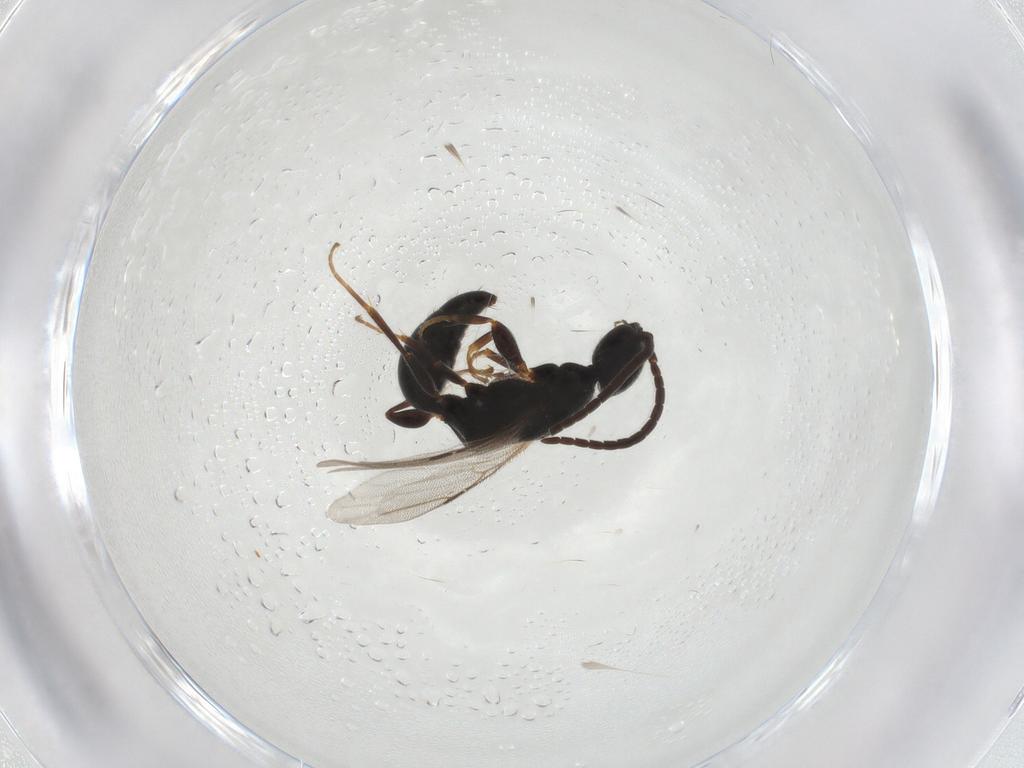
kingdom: Animalia
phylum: Arthropoda
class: Insecta
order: Hymenoptera
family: Bethylidae
